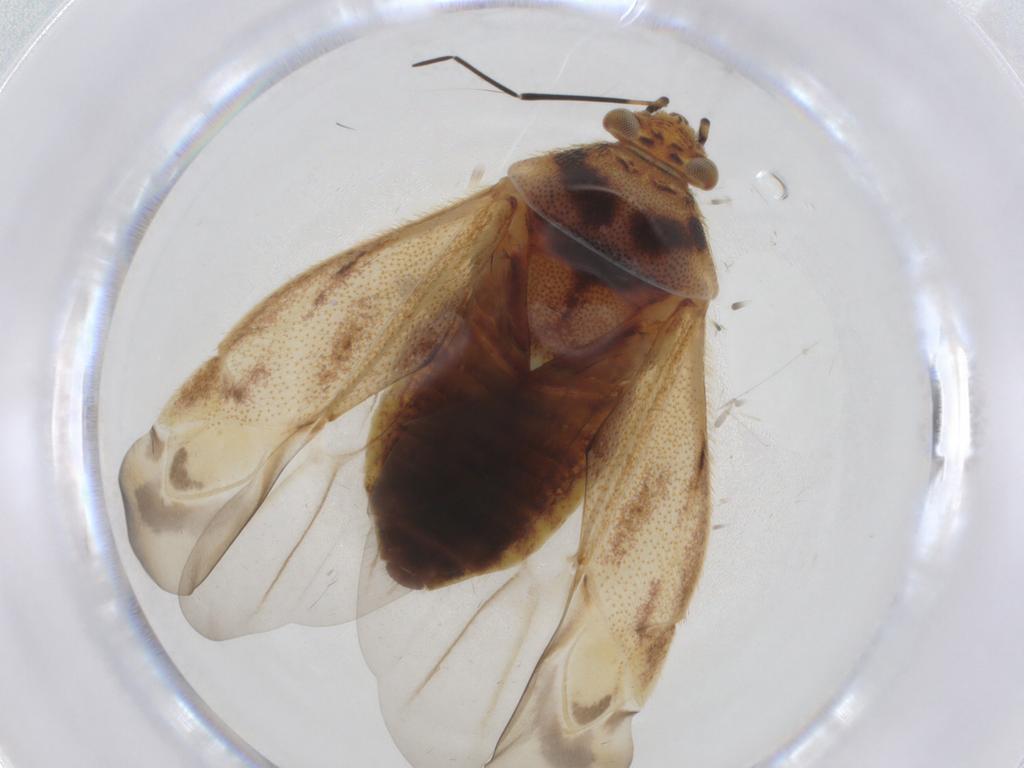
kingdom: Animalia
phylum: Arthropoda
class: Insecta
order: Hemiptera
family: Miridae
